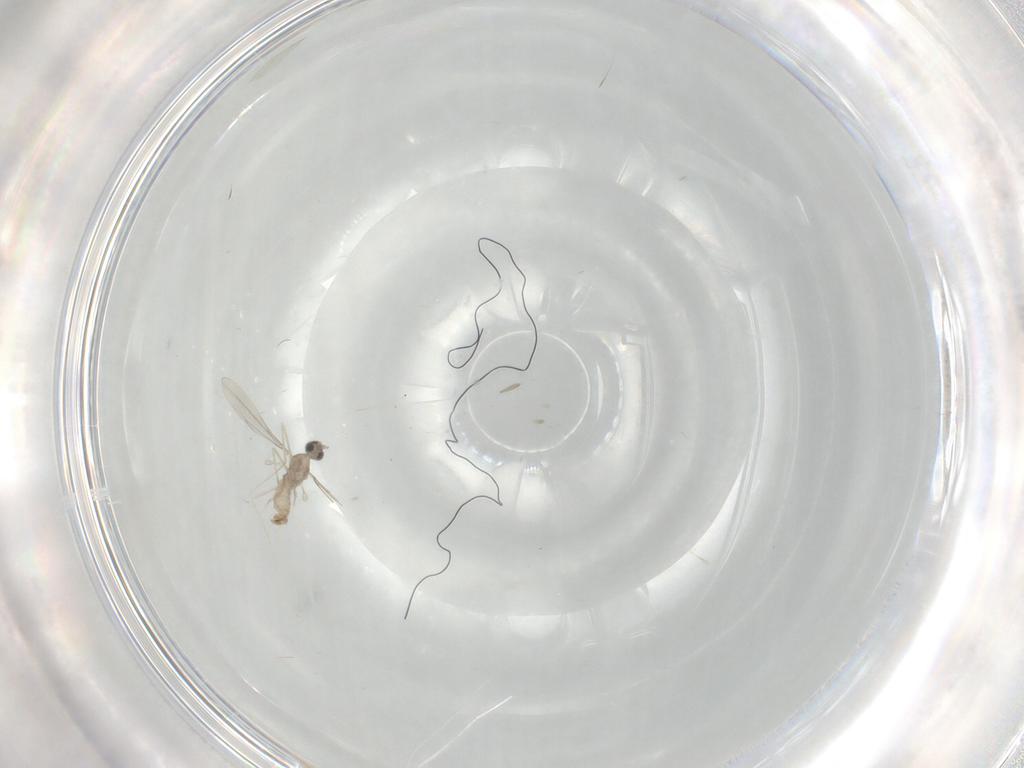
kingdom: Animalia
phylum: Arthropoda
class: Insecta
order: Diptera
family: Cecidomyiidae
